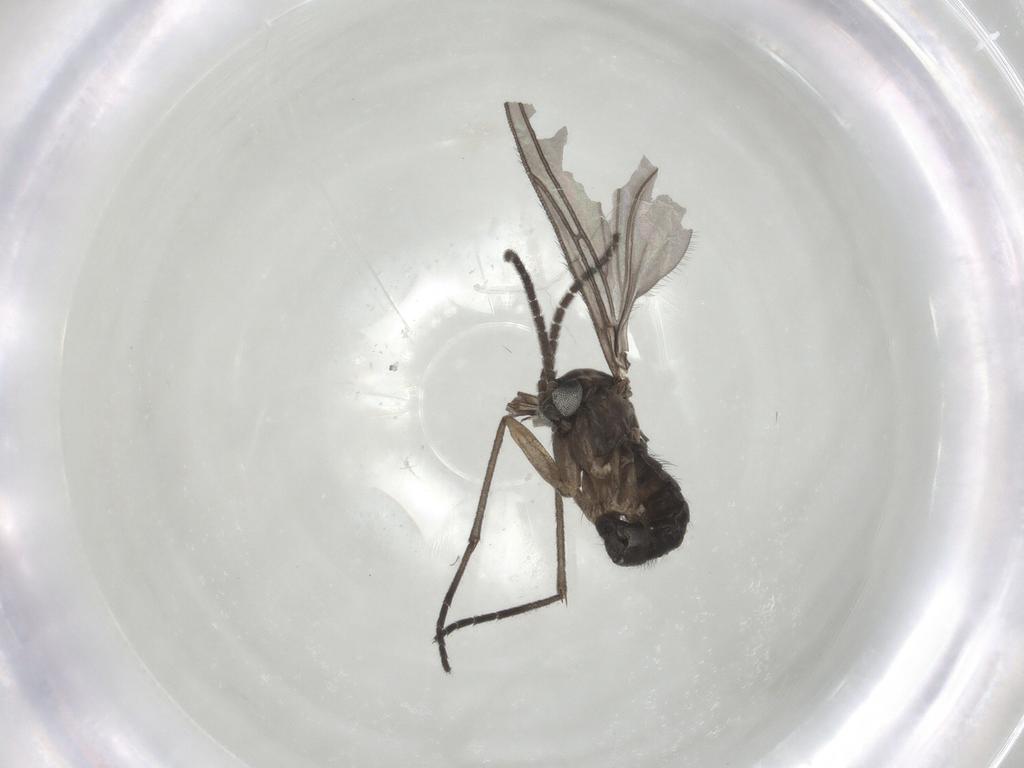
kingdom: Animalia
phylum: Arthropoda
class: Insecta
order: Diptera
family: Sciaridae
